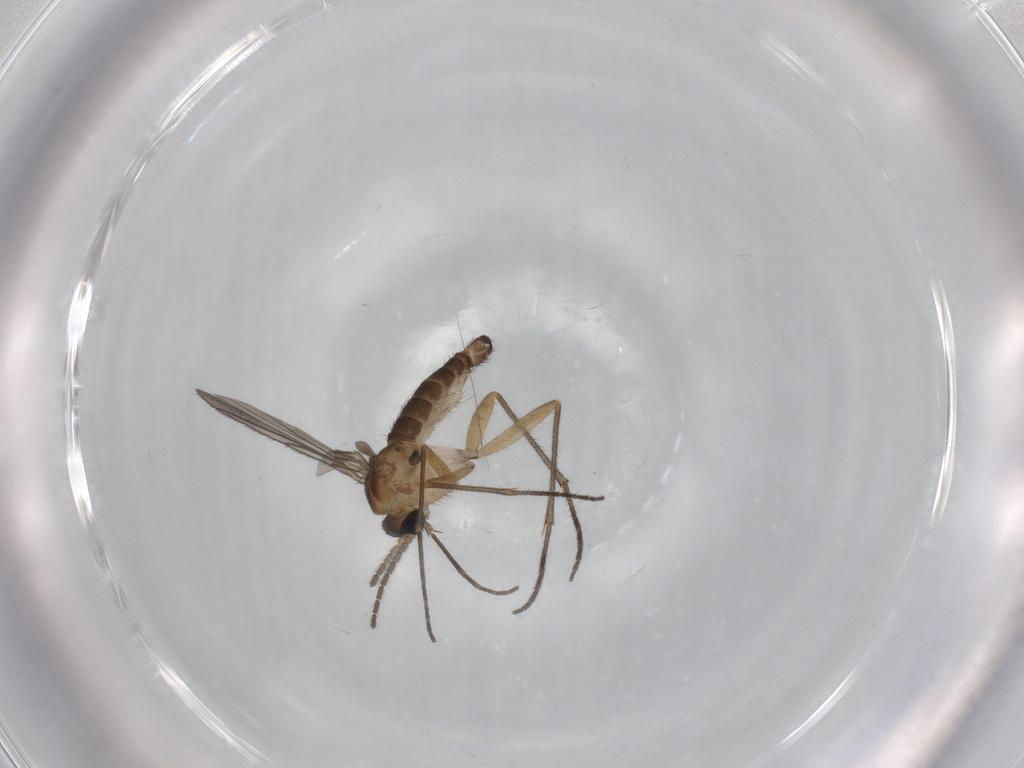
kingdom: Animalia
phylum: Arthropoda
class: Insecta
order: Diptera
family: Sciaridae
